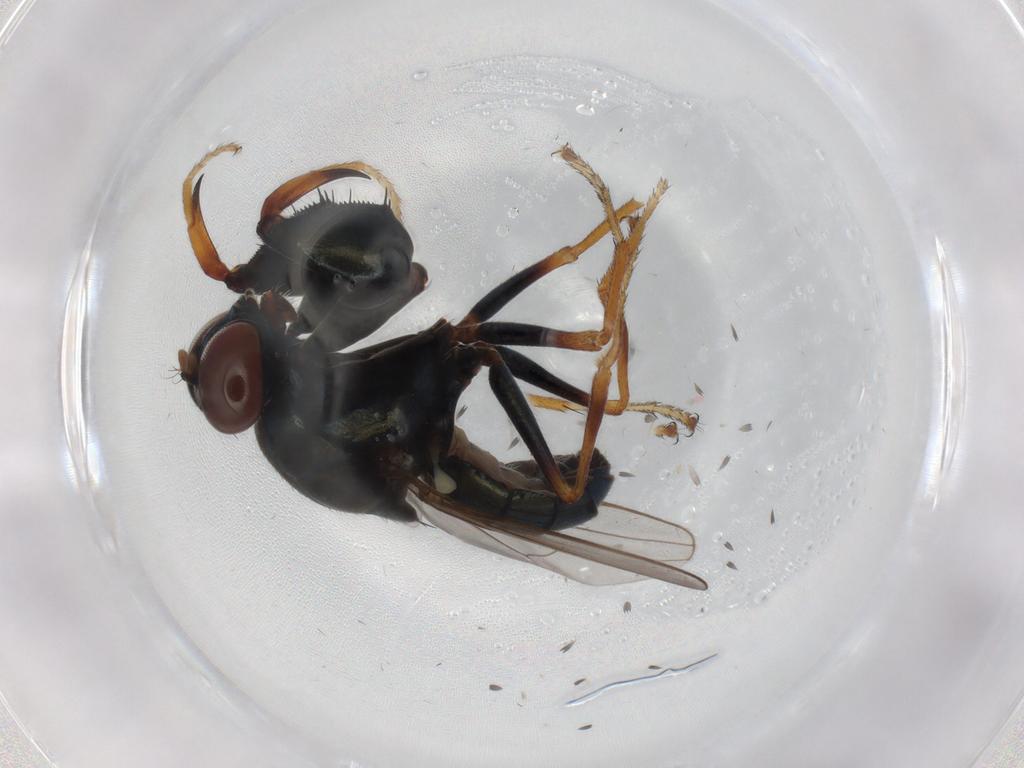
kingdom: Animalia
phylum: Arthropoda
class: Insecta
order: Diptera
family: Ephydridae
